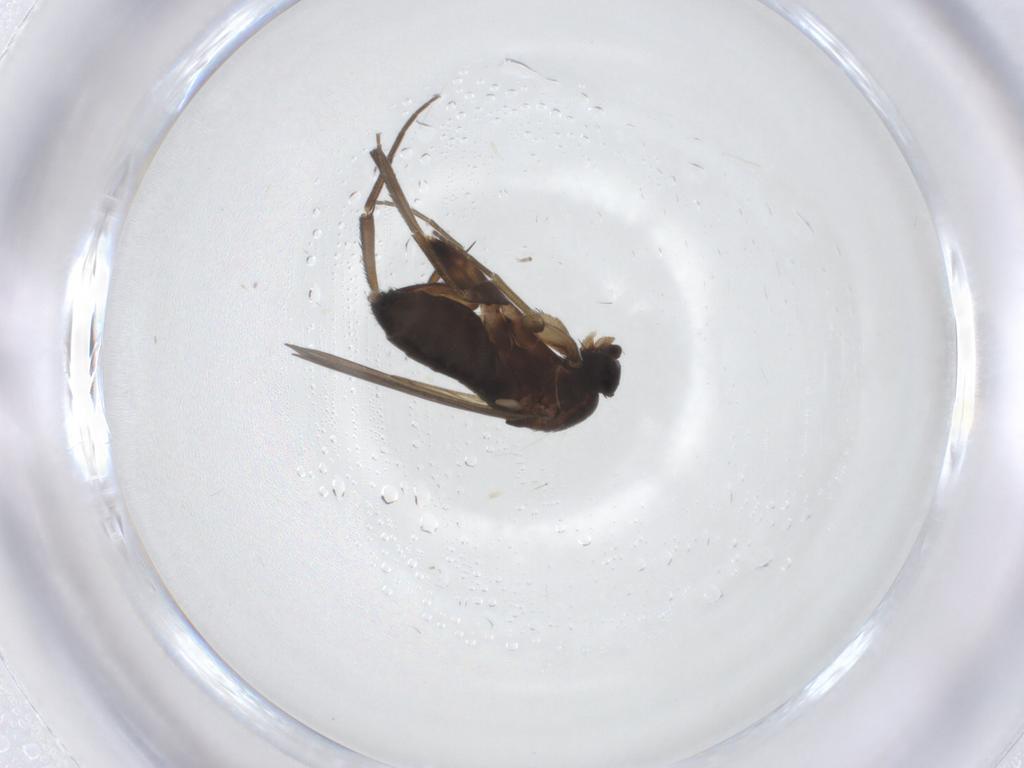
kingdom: Animalia
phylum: Arthropoda
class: Insecta
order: Diptera
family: Phoridae
